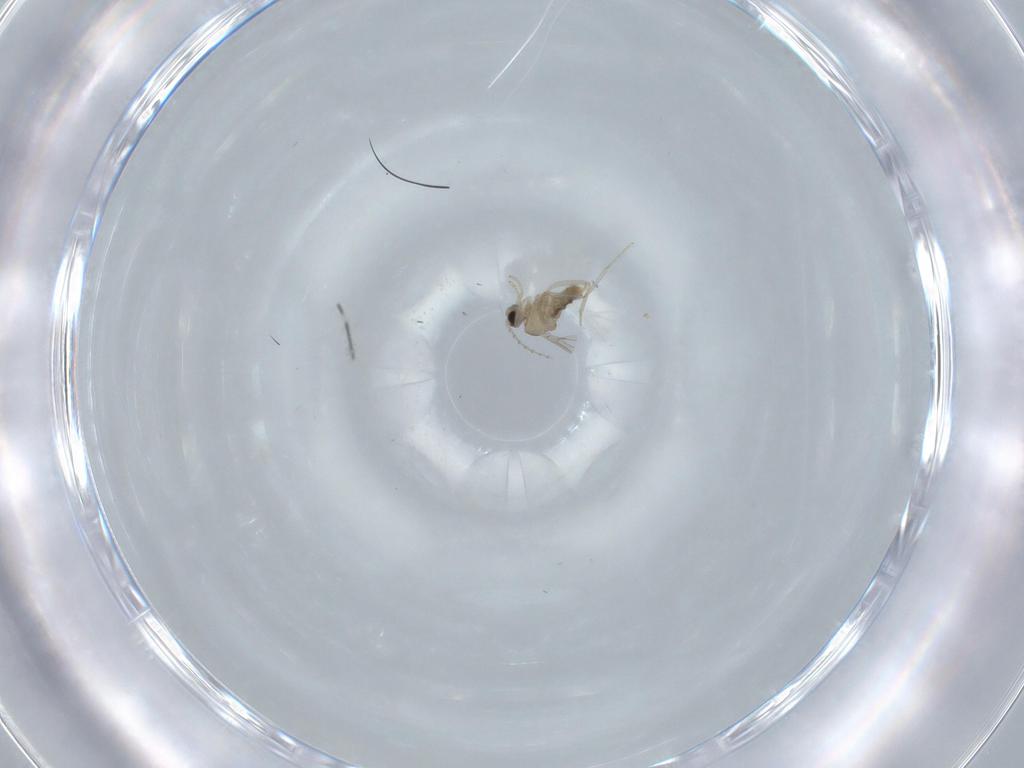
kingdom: Animalia
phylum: Arthropoda
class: Insecta
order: Diptera
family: Cecidomyiidae
